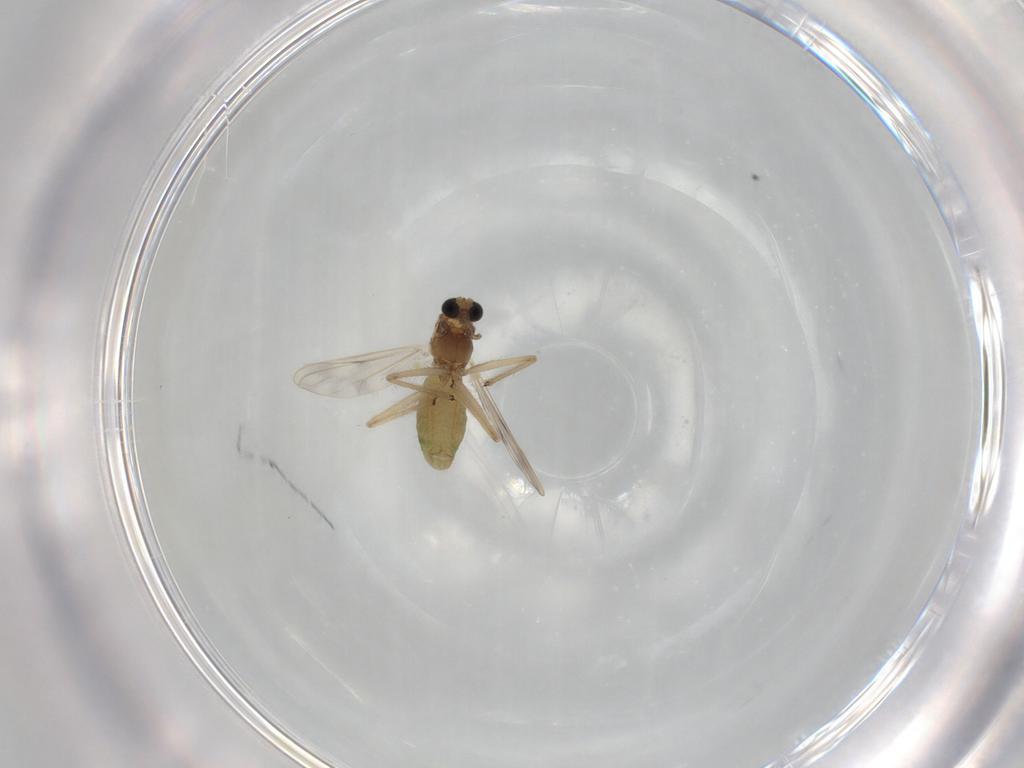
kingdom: Animalia
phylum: Arthropoda
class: Insecta
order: Diptera
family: Chironomidae
